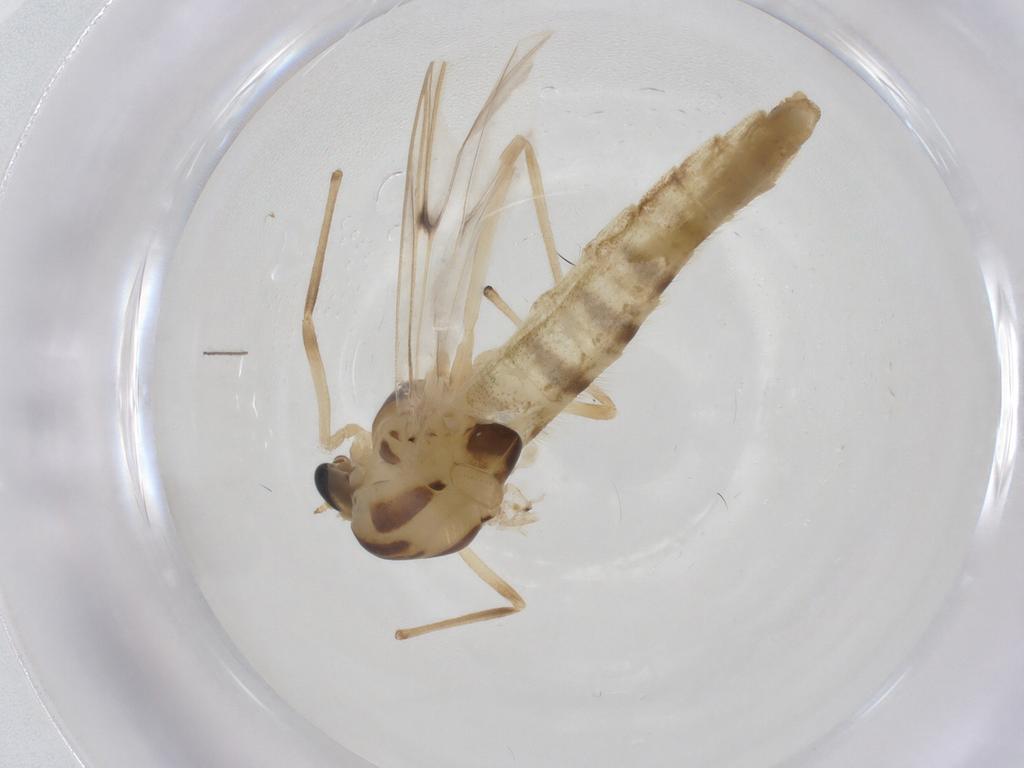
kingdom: Animalia
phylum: Arthropoda
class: Insecta
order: Diptera
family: Chironomidae
